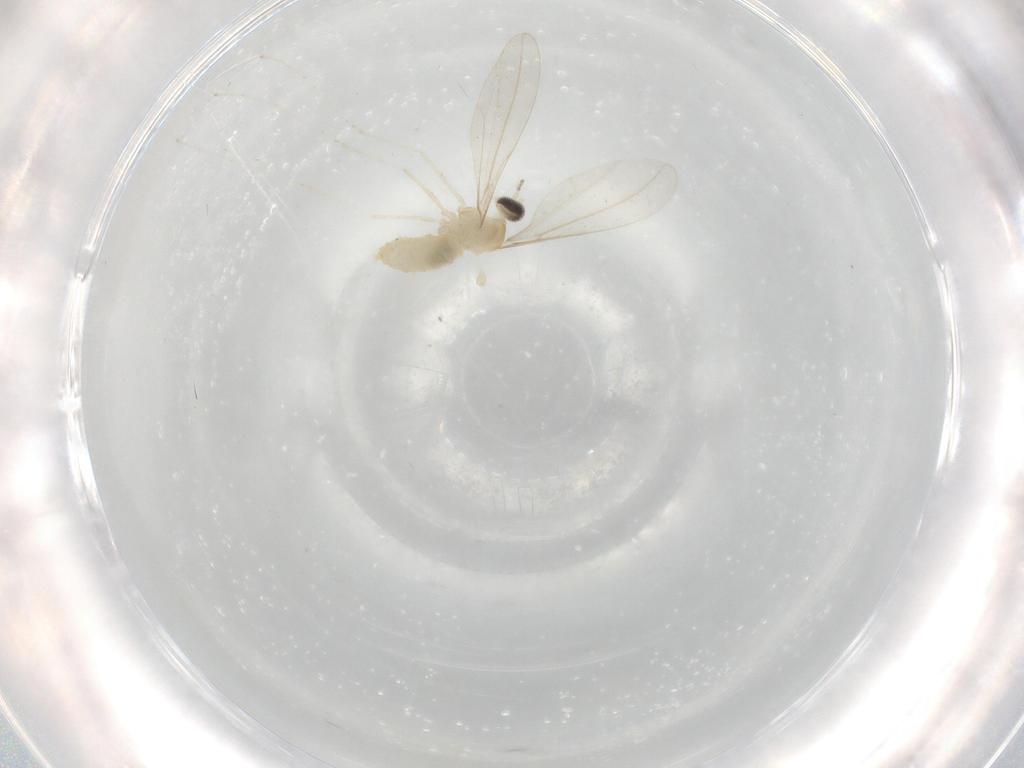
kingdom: Animalia
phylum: Arthropoda
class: Insecta
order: Diptera
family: Cecidomyiidae
